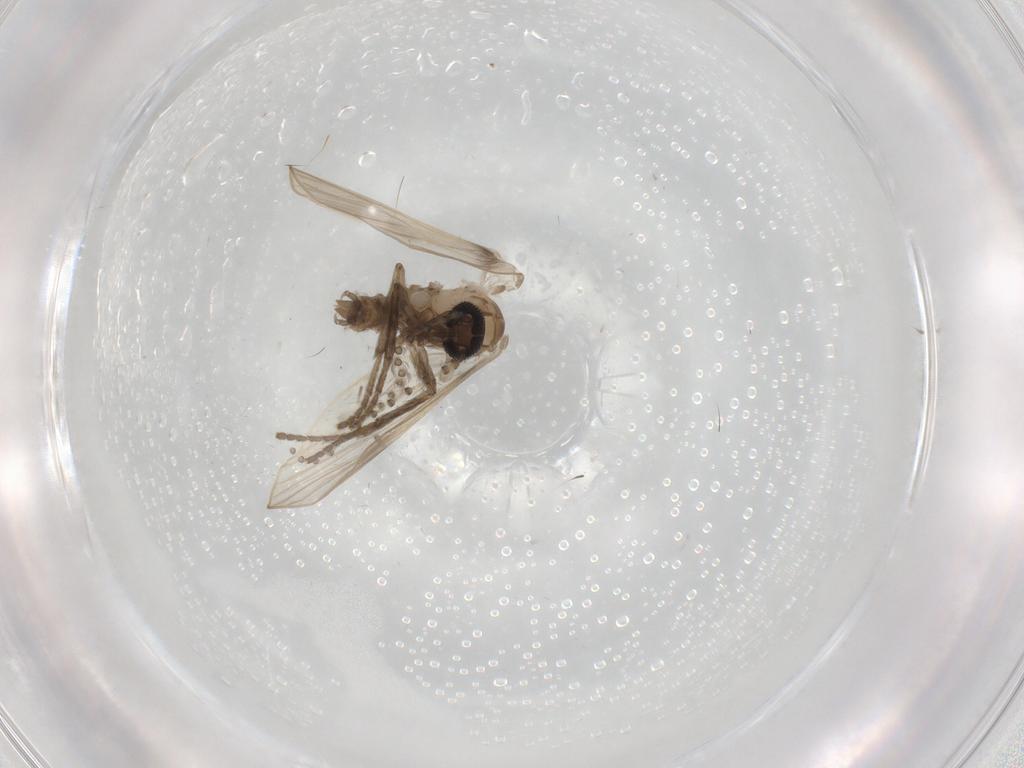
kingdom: Animalia
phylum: Arthropoda
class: Insecta
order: Diptera
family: Psychodidae
